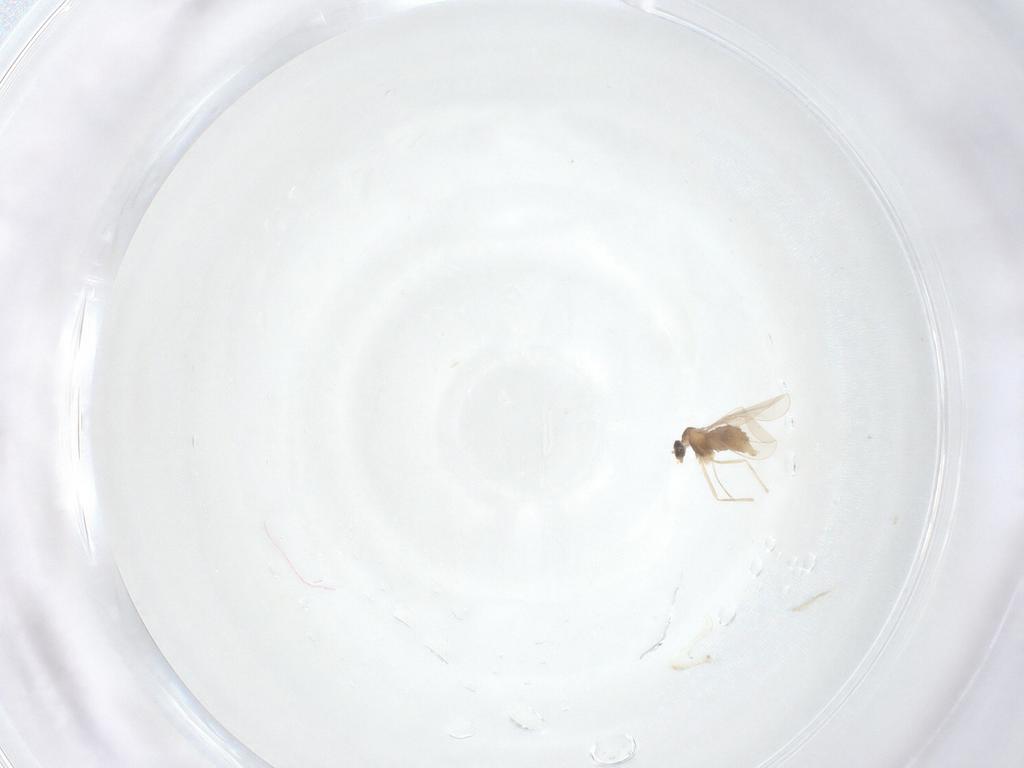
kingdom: Animalia
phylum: Arthropoda
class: Insecta
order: Diptera
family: Cecidomyiidae
